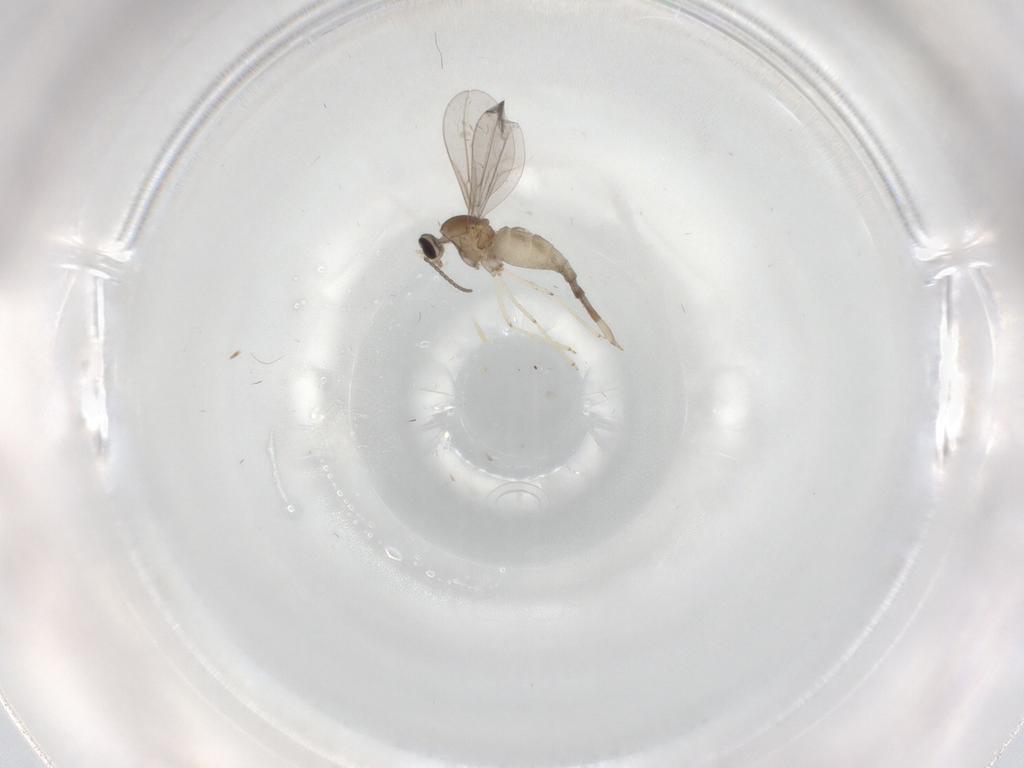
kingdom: Animalia
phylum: Arthropoda
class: Insecta
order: Diptera
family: Cecidomyiidae
